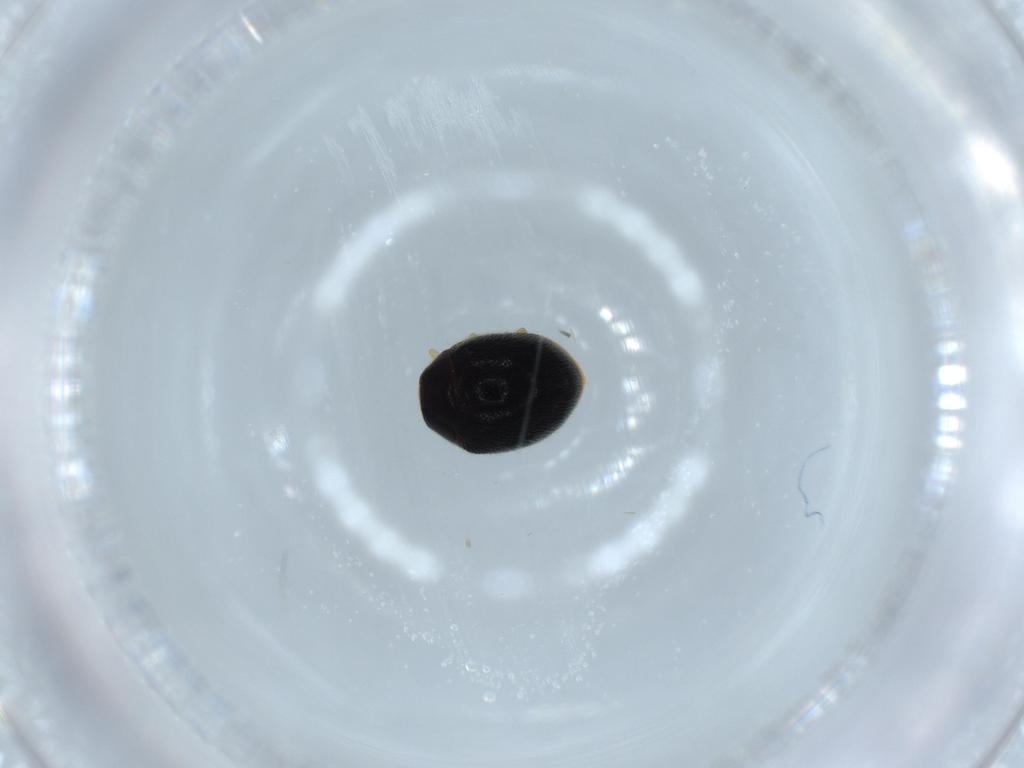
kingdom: Animalia
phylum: Arthropoda
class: Insecta
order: Coleoptera
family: Coccinellidae
